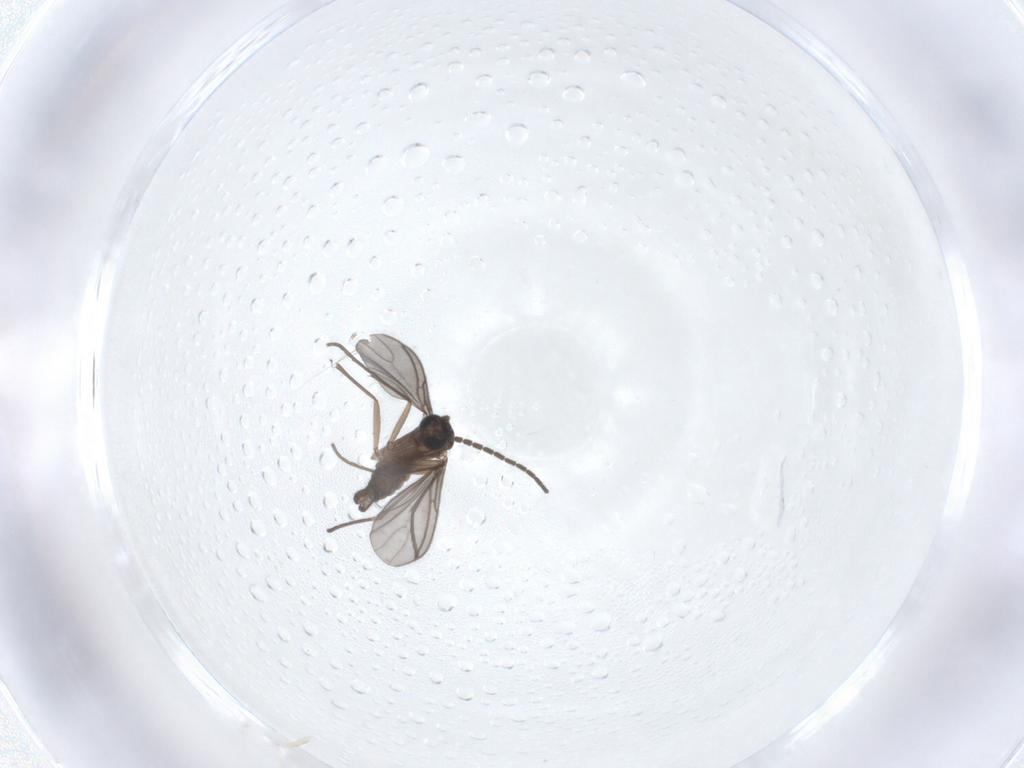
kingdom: Animalia
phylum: Arthropoda
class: Insecta
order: Diptera
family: Sciaridae
